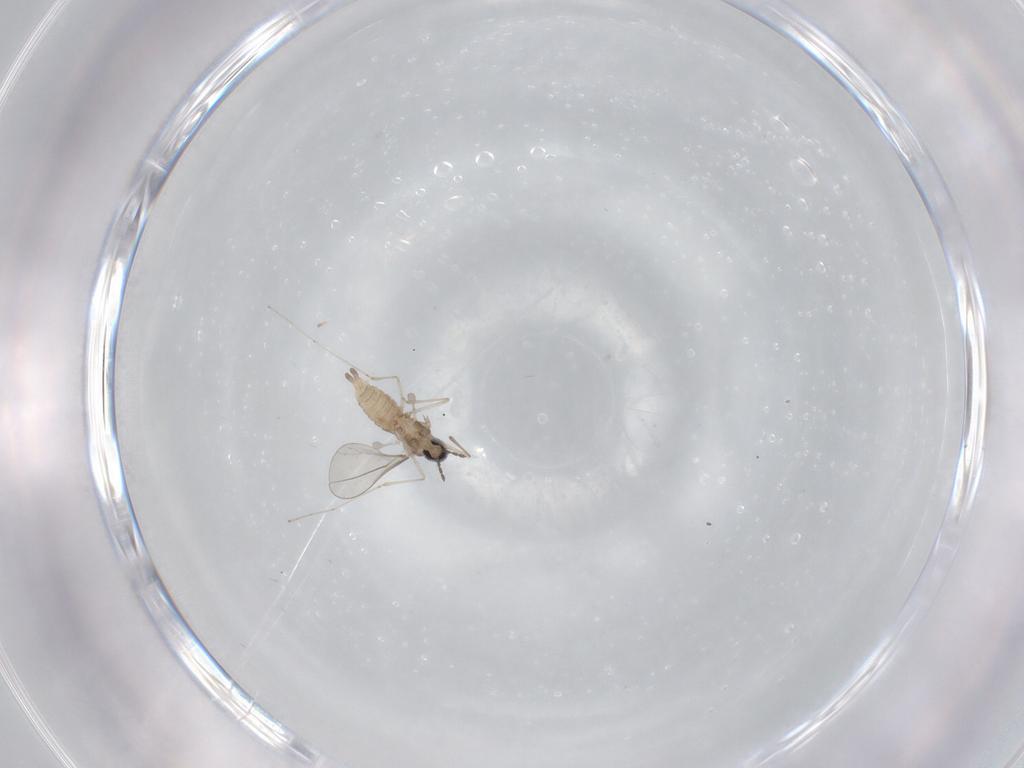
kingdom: Animalia
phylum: Arthropoda
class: Insecta
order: Diptera
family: Cecidomyiidae
